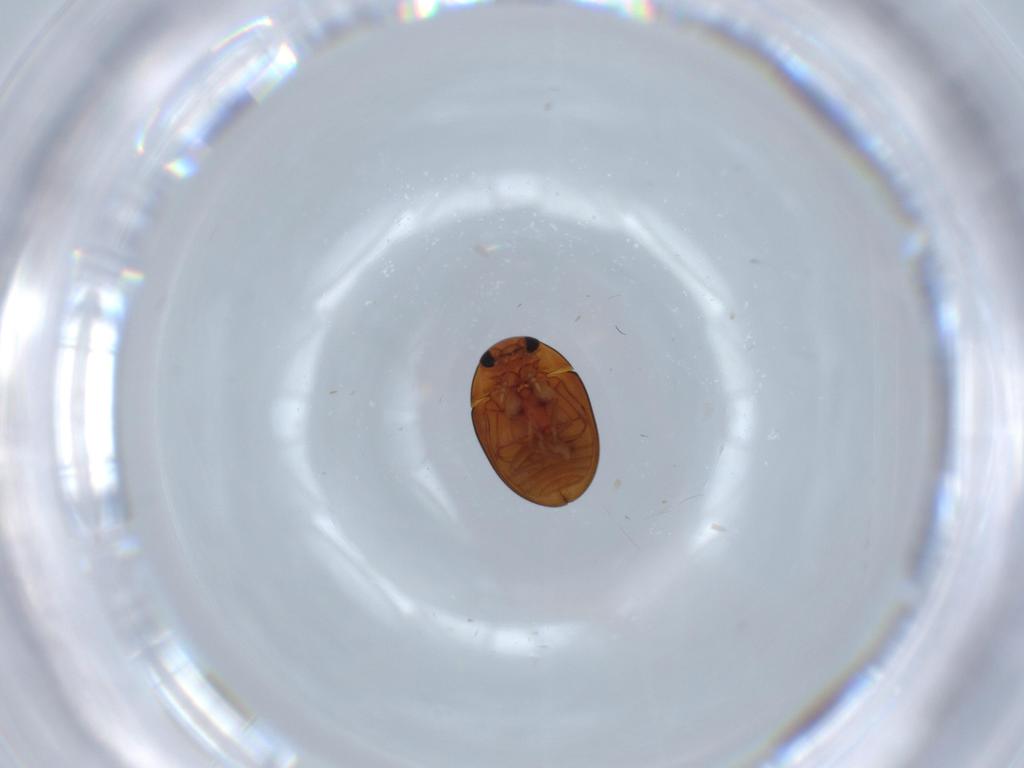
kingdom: Animalia
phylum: Arthropoda
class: Insecta
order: Coleoptera
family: Phalacridae
